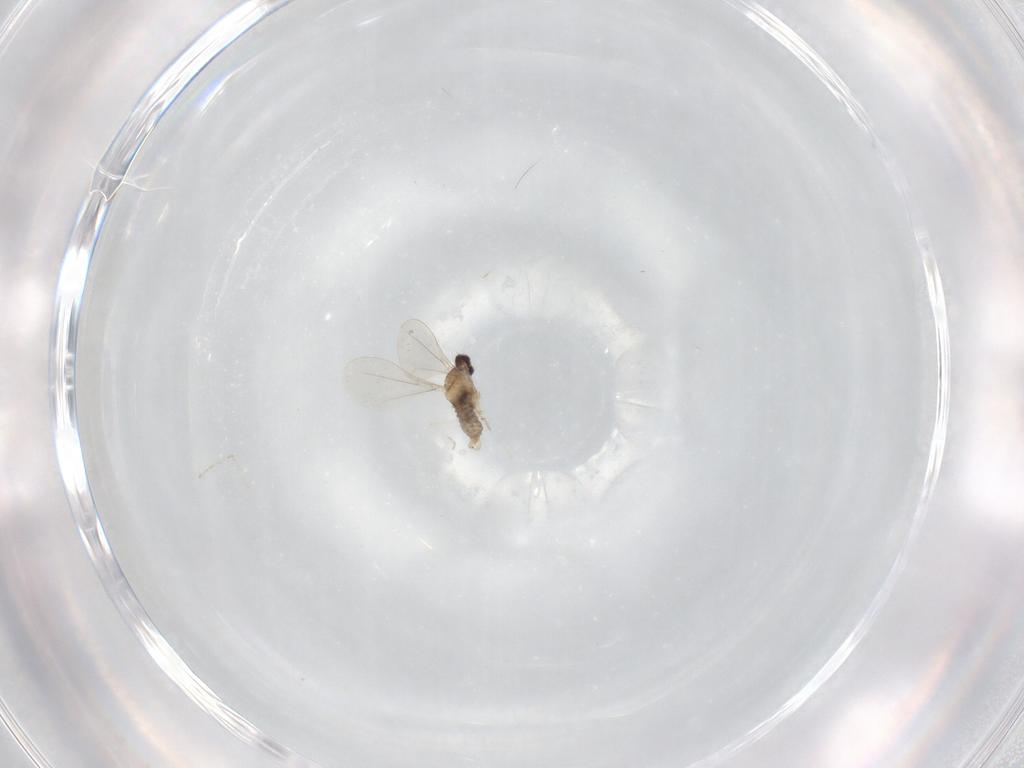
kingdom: Animalia
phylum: Arthropoda
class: Insecta
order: Diptera
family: Cecidomyiidae
